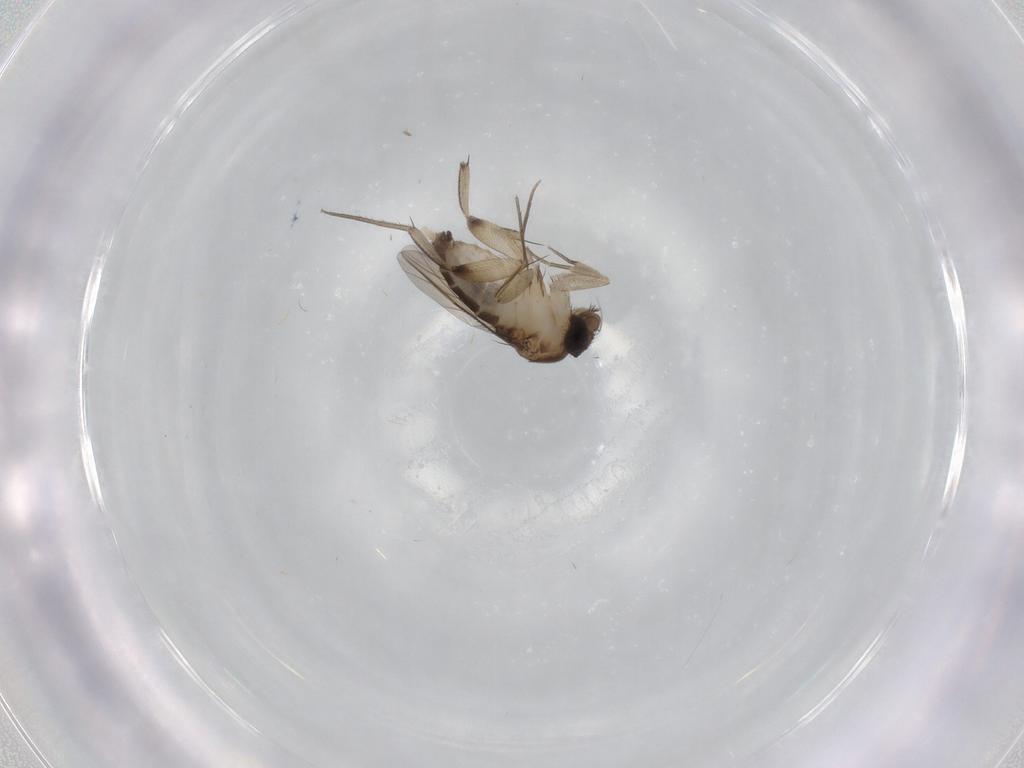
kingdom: Animalia
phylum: Arthropoda
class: Insecta
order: Diptera
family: Phoridae
